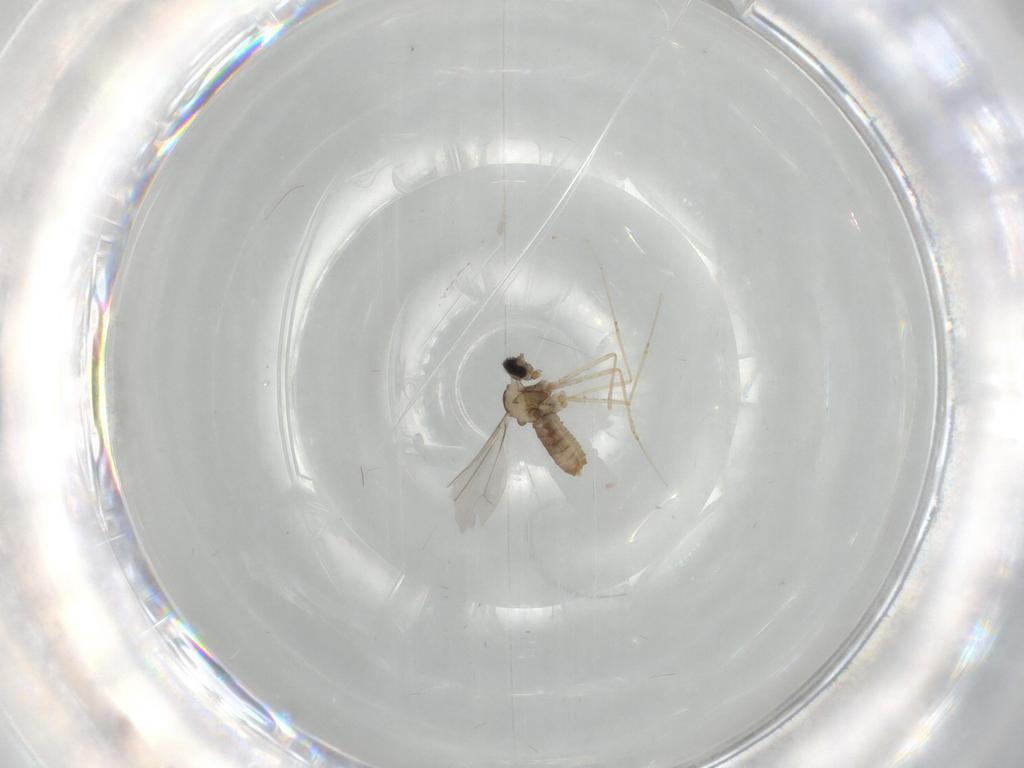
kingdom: Animalia
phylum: Arthropoda
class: Insecta
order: Diptera
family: Cecidomyiidae
